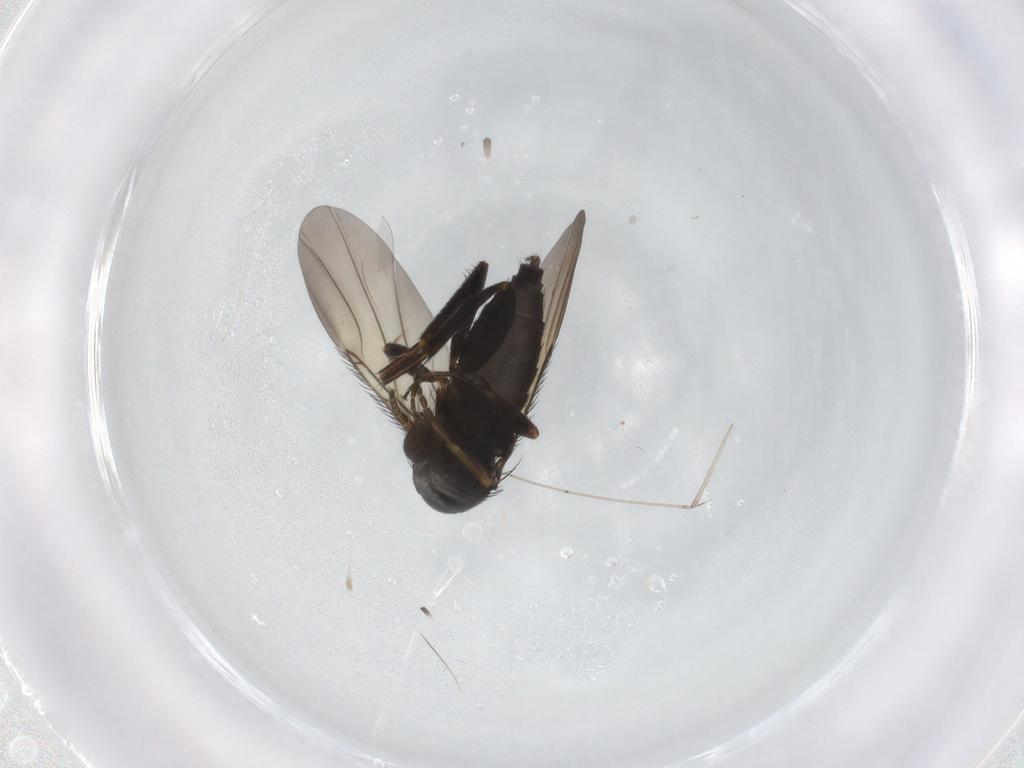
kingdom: Animalia
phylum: Arthropoda
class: Insecta
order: Diptera
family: Phoridae
